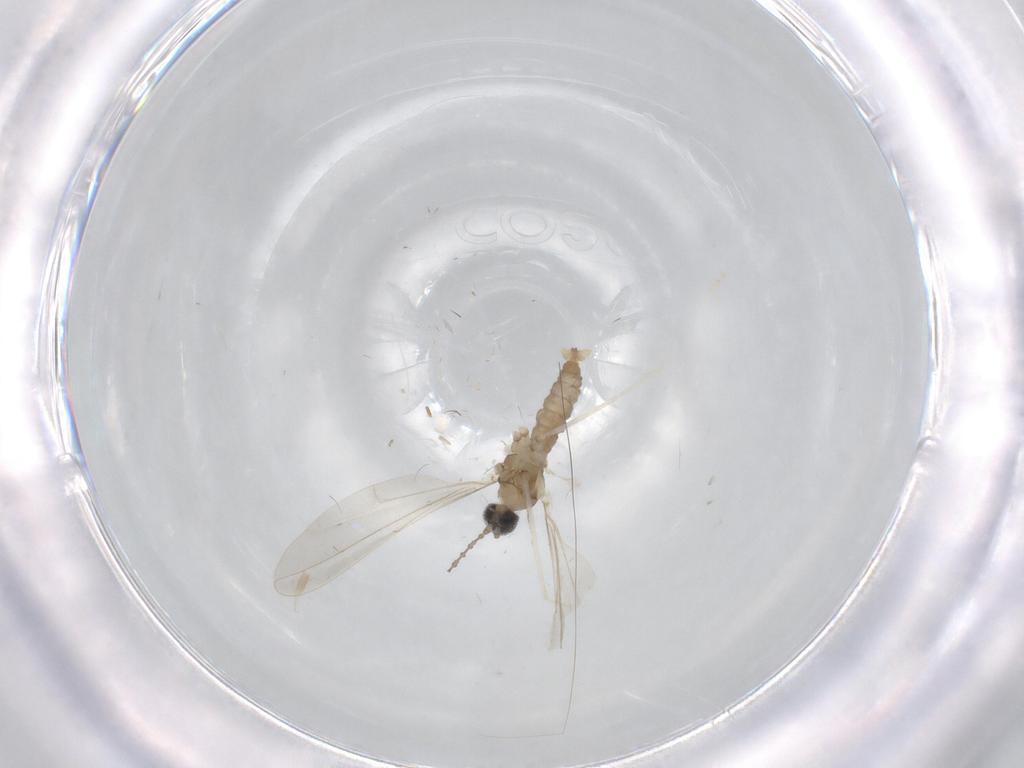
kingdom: Animalia
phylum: Arthropoda
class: Insecta
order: Diptera
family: Cecidomyiidae
